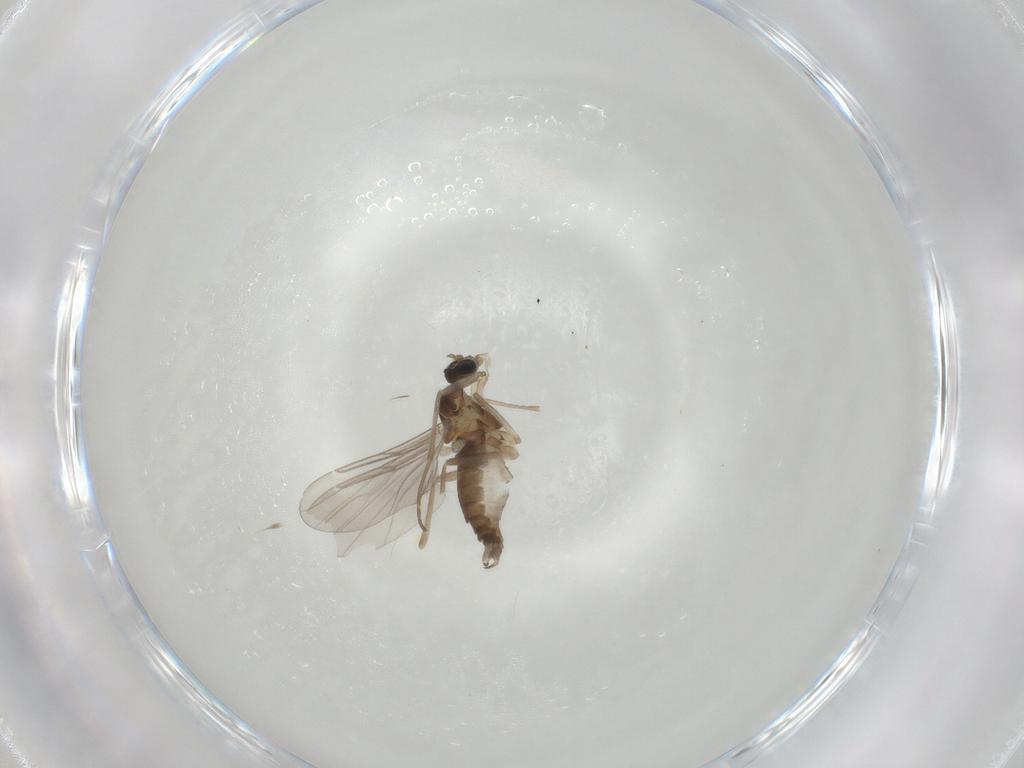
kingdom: Animalia
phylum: Arthropoda
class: Insecta
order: Diptera
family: Cecidomyiidae
